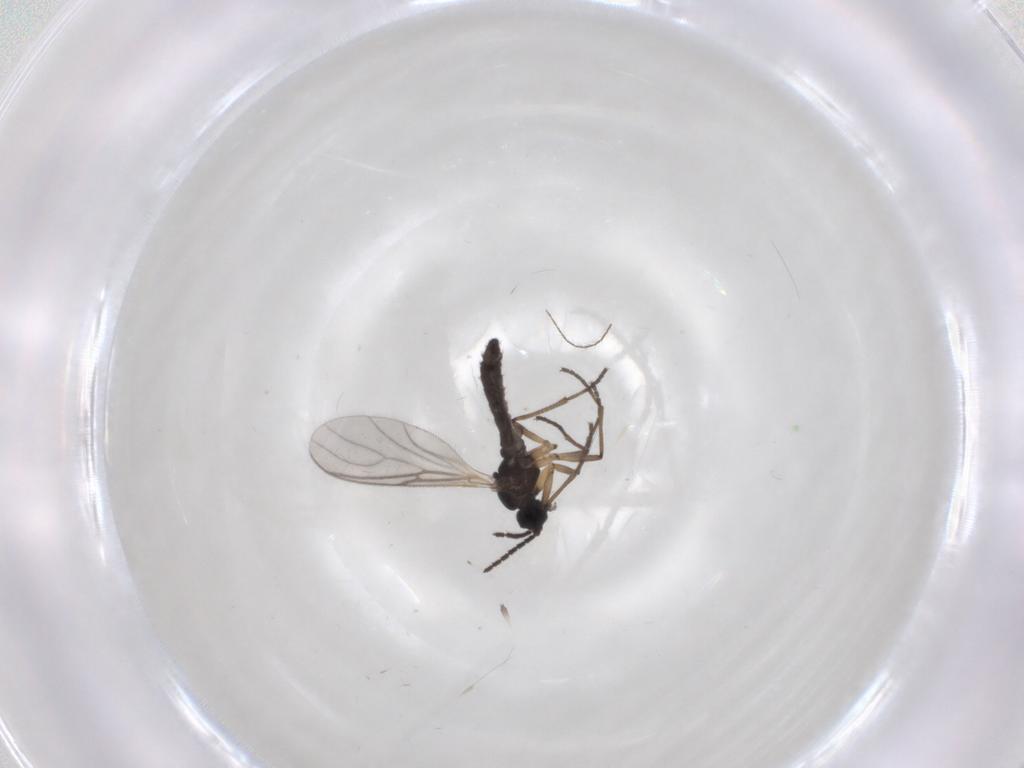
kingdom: Animalia
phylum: Arthropoda
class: Insecta
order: Diptera
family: Sciaridae
